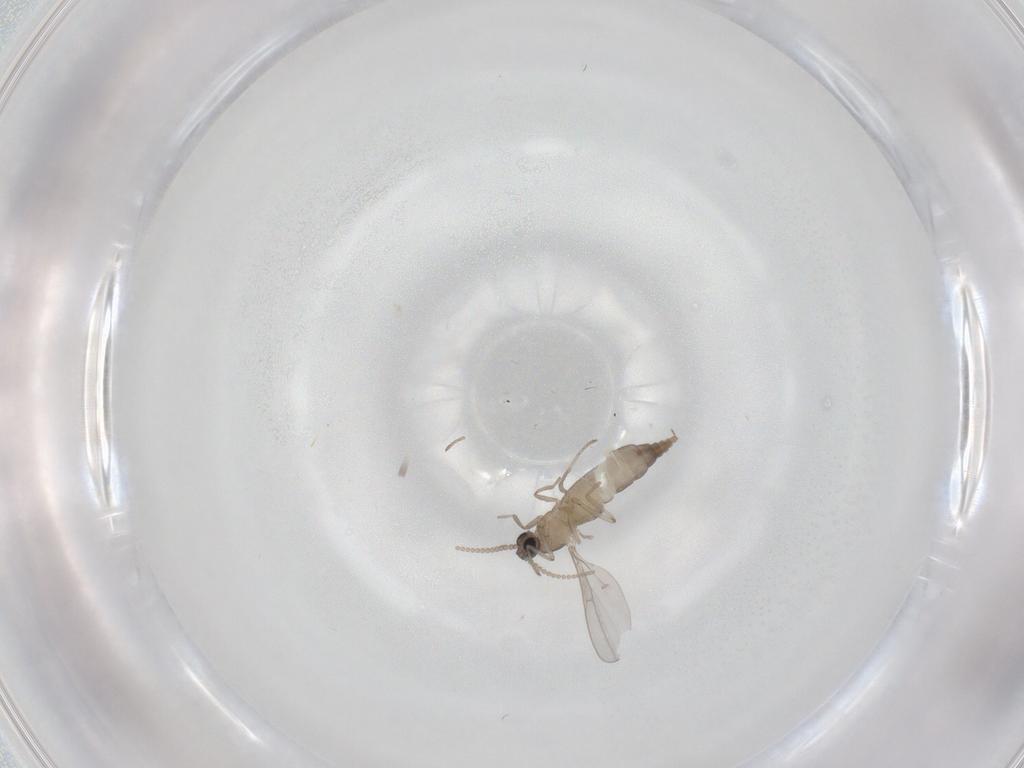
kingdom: Animalia
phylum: Arthropoda
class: Insecta
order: Diptera
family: Cecidomyiidae
